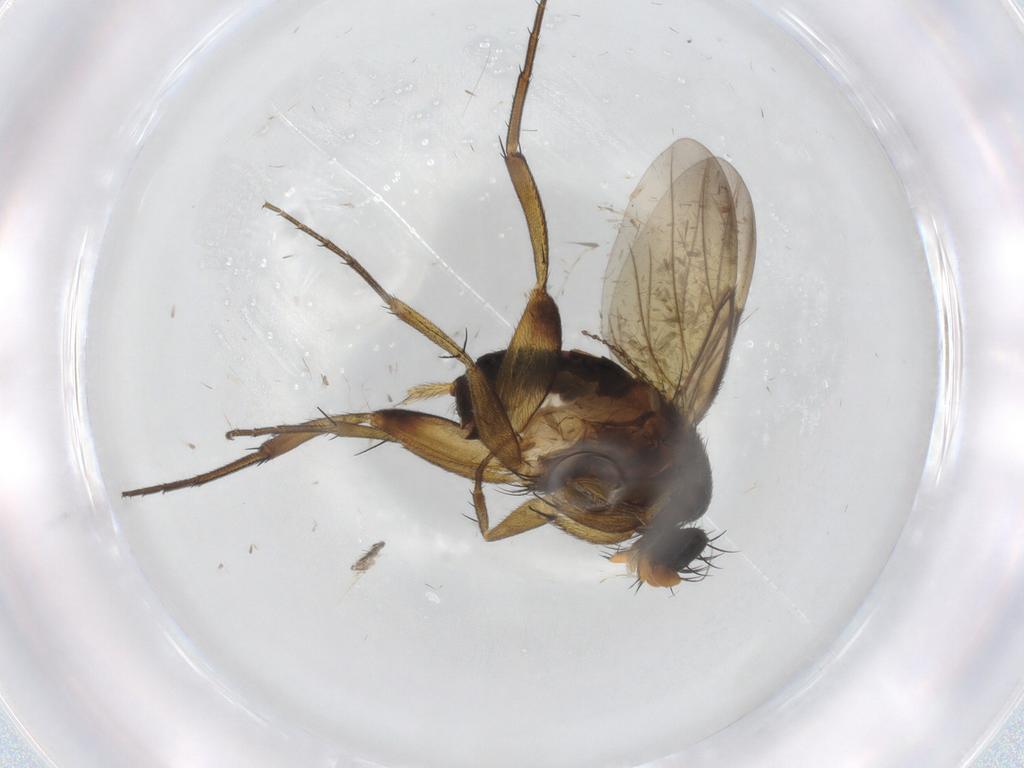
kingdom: Animalia
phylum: Arthropoda
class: Insecta
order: Diptera
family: Phoridae
